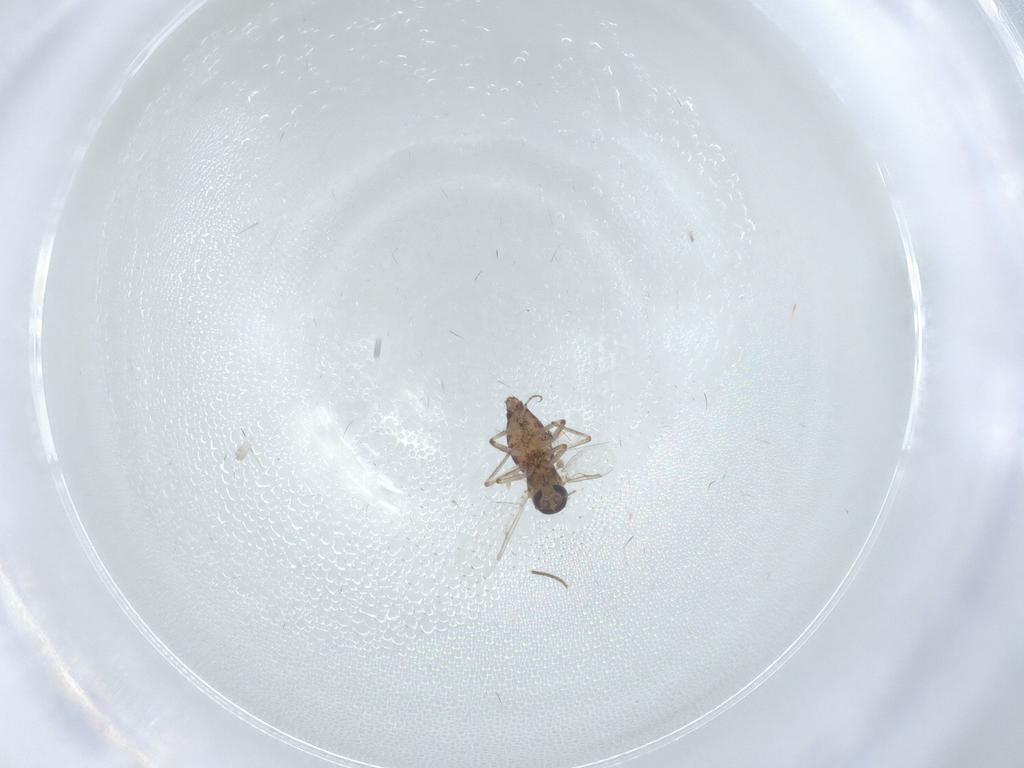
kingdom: Animalia
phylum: Arthropoda
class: Insecta
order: Diptera
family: Ceratopogonidae
